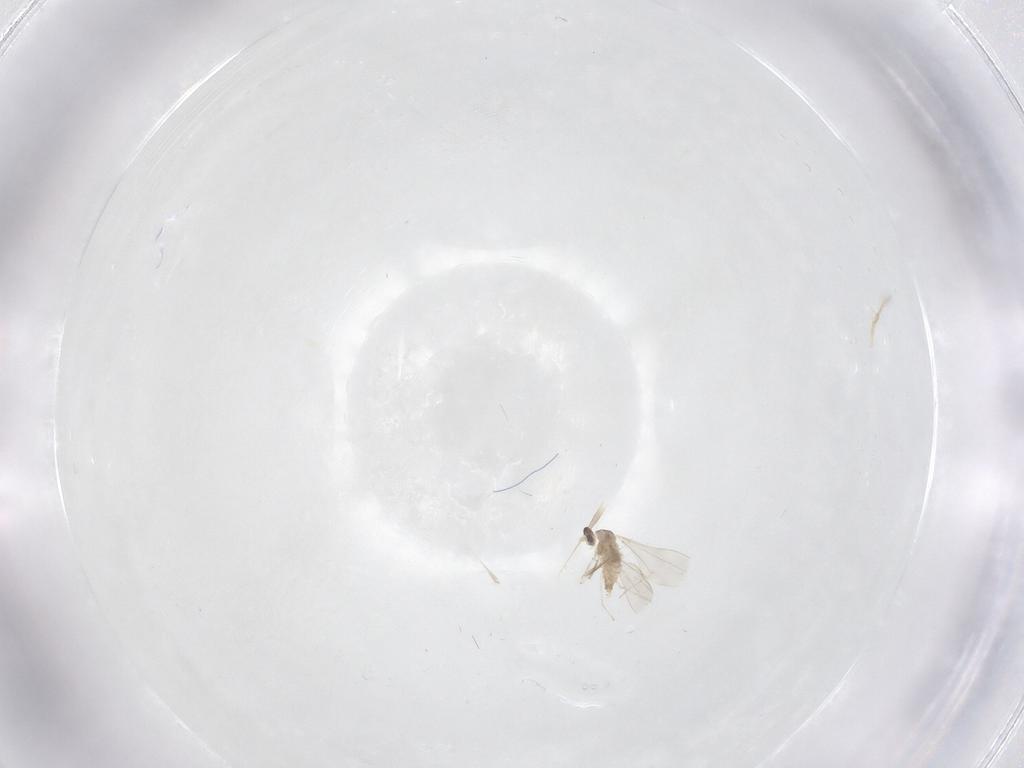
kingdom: Animalia
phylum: Arthropoda
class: Insecta
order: Diptera
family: Cecidomyiidae
